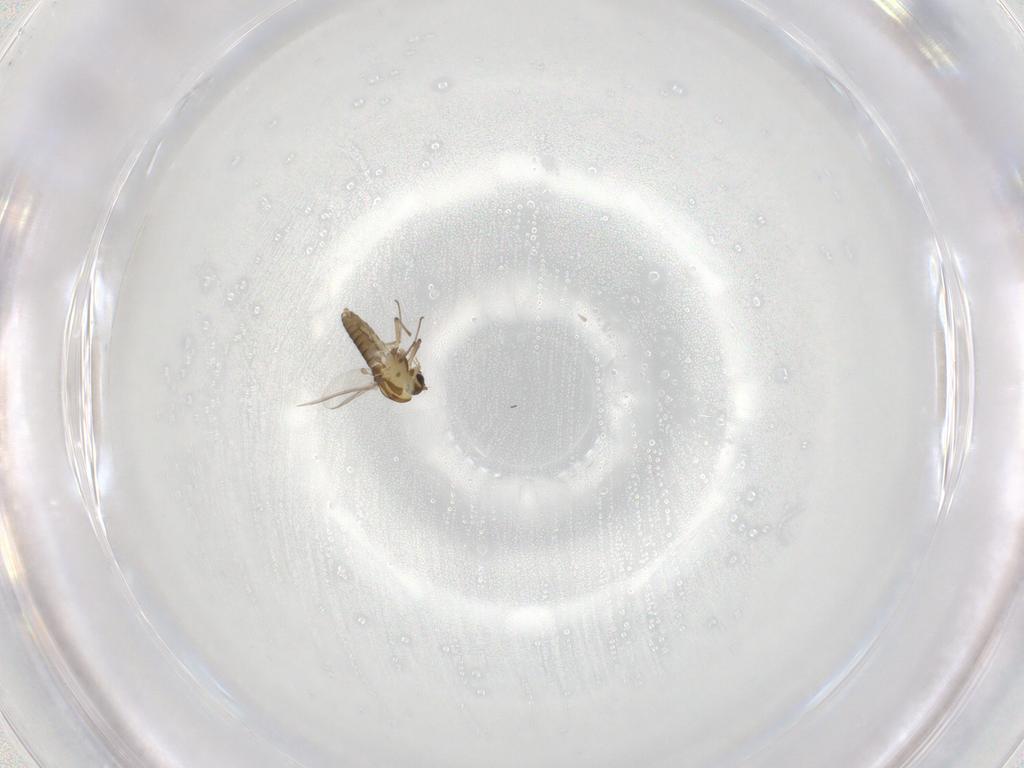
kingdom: Animalia
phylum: Arthropoda
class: Insecta
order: Diptera
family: Chironomidae
